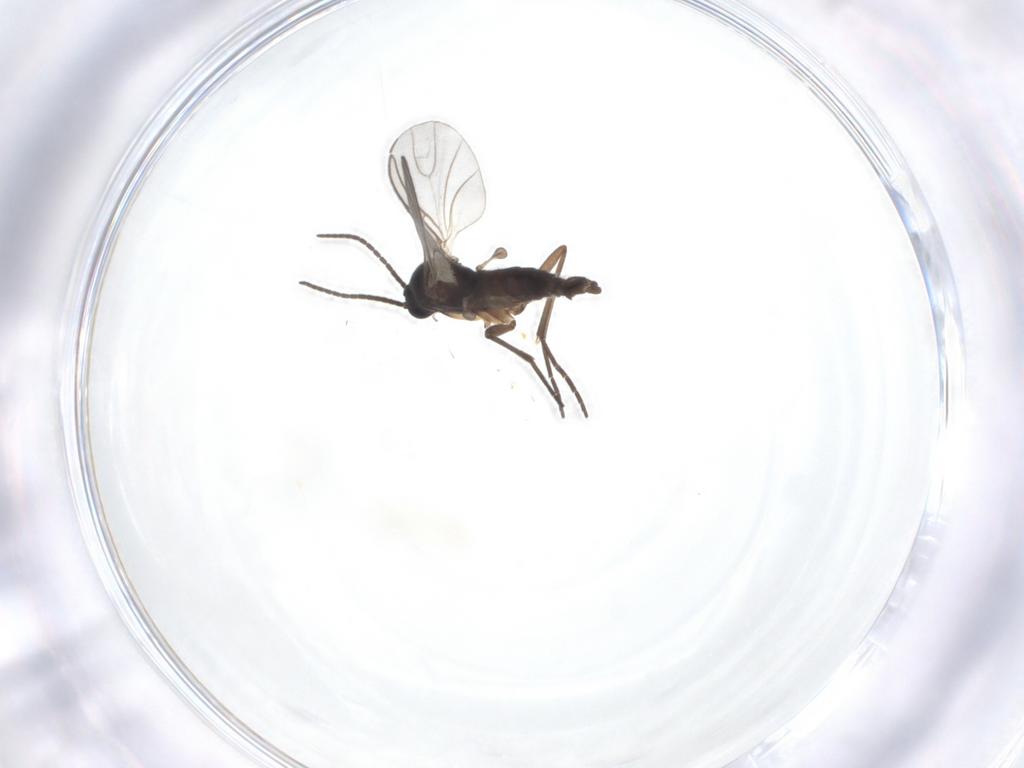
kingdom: Animalia
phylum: Arthropoda
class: Insecta
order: Diptera
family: Sciaridae
